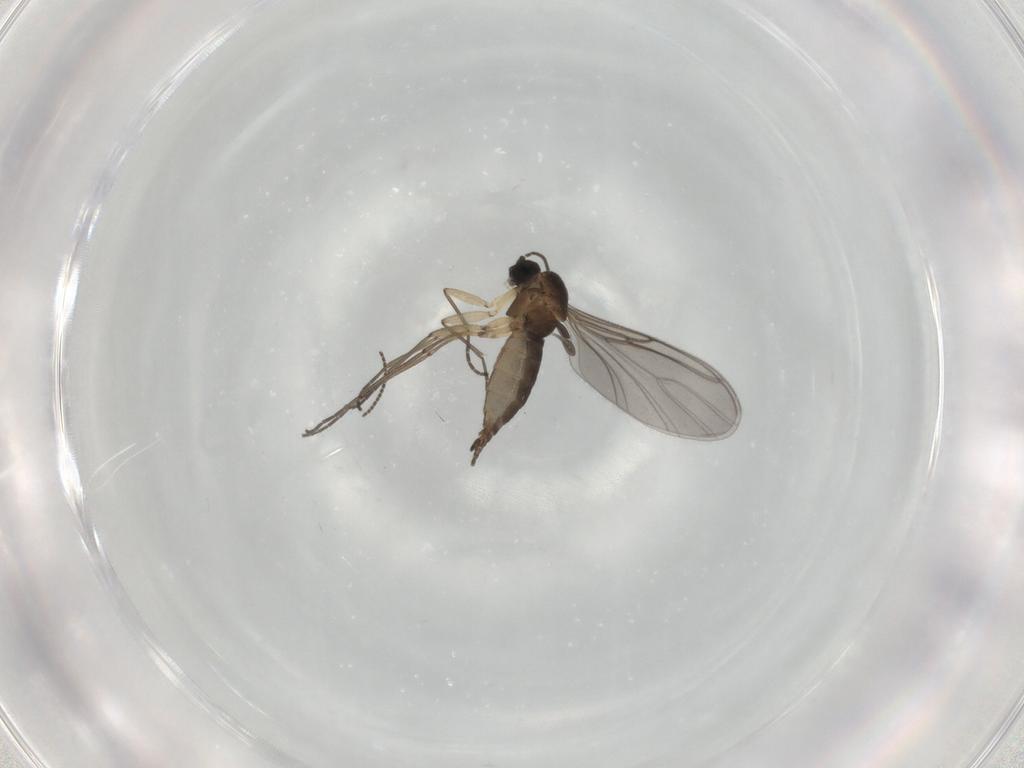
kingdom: Animalia
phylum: Arthropoda
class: Insecta
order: Diptera
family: Sciaridae
